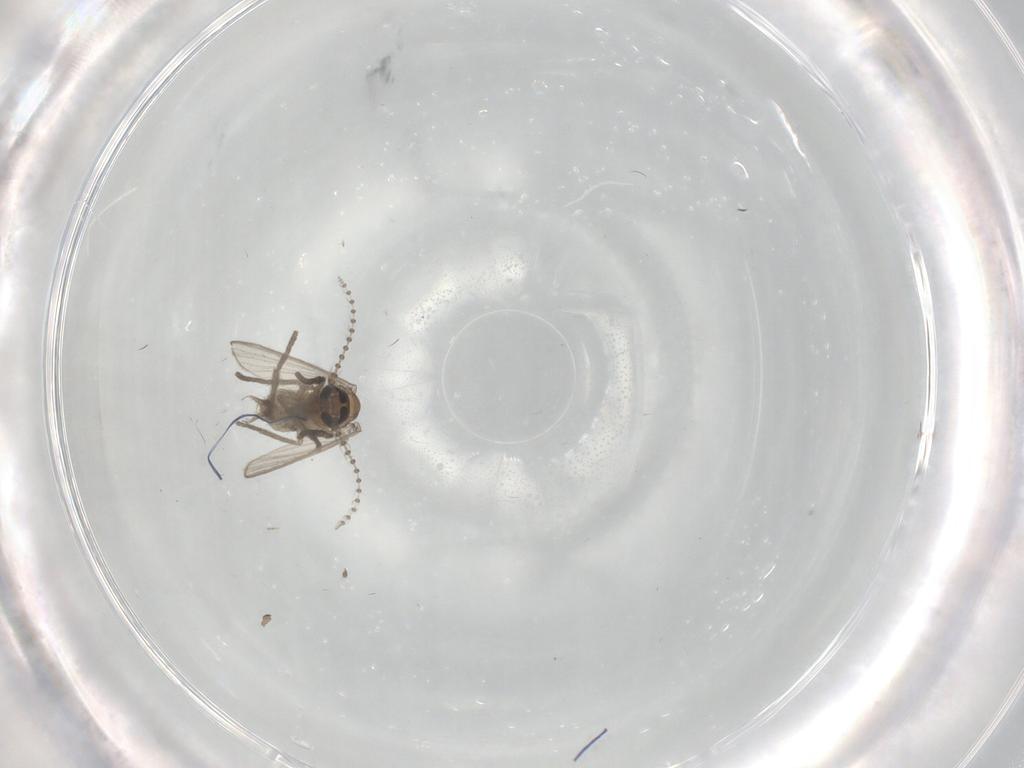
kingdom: Animalia
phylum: Arthropoda
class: Insecta
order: Diptera
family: Psychodidae
